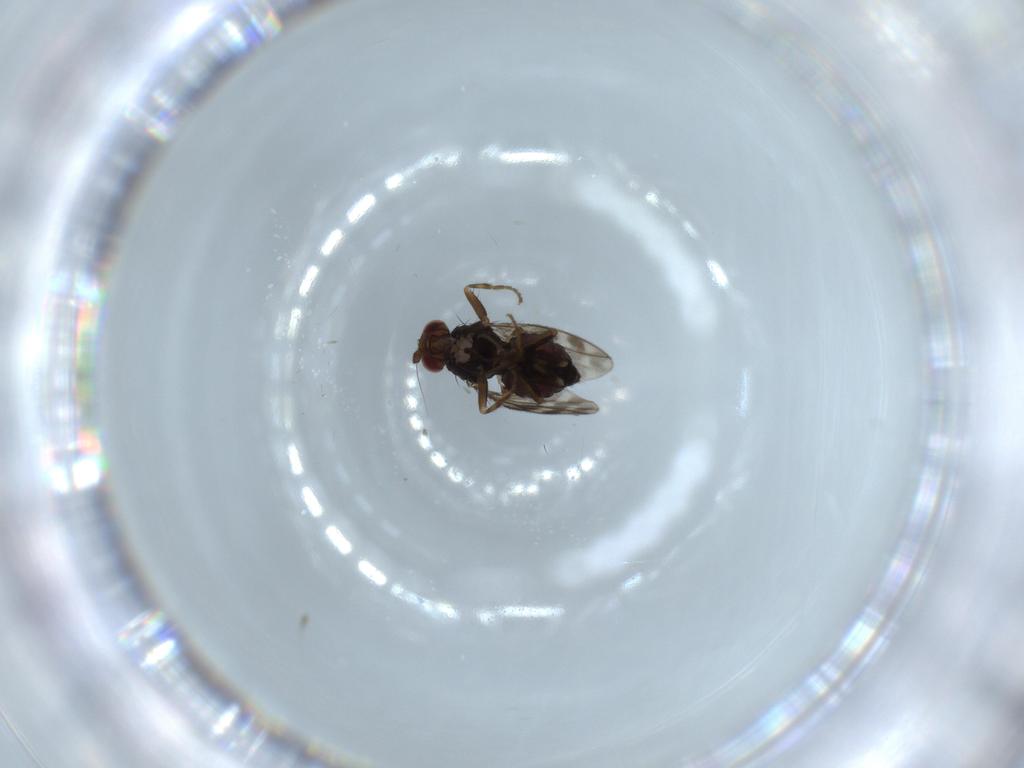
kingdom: Animalia
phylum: Arthropoda
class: Insecta
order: Diptera
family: Sphaeroceridae
